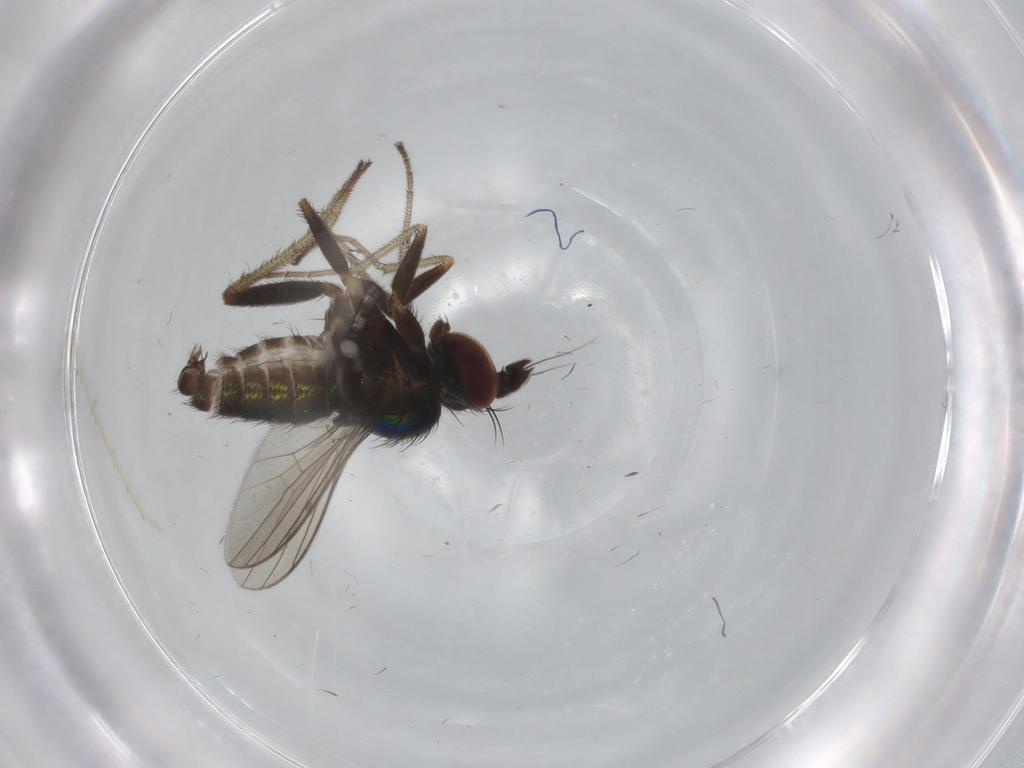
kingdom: Animalia
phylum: Arthropoda
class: Insecta
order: Diptera
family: Dolichopodidae
